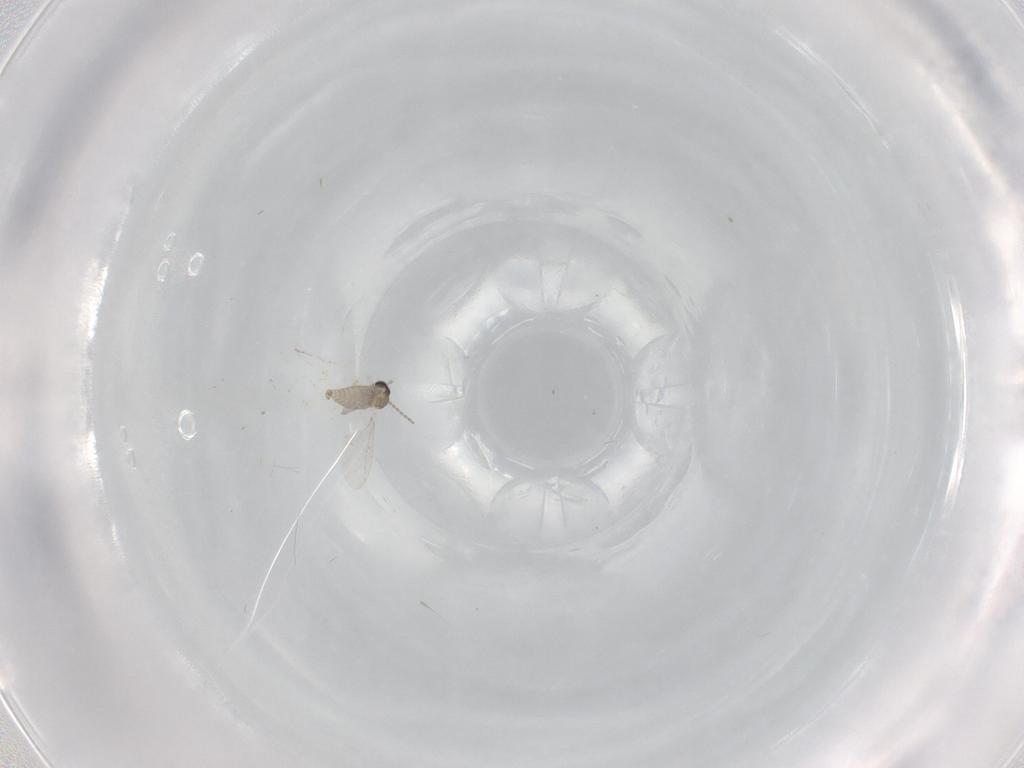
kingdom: Animalia
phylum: Arthropoda
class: Insecta
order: Diptera
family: Cecidomyiidae
